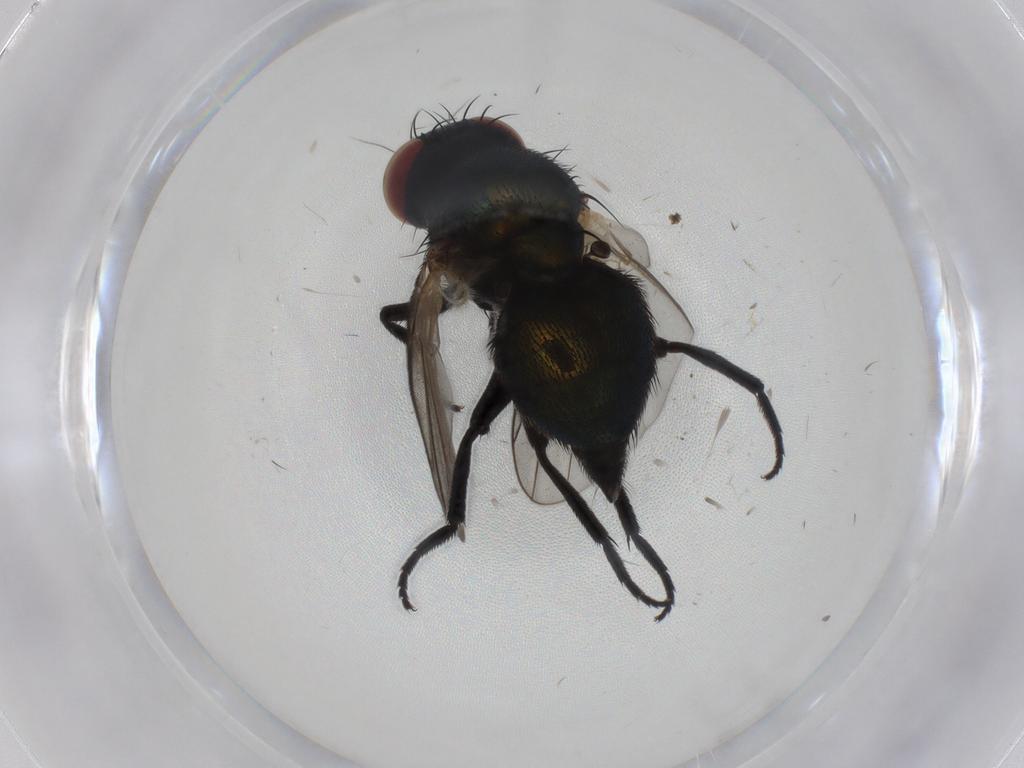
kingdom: Animalia
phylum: Arthropoda
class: Insecta
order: Diptera
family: Agromyzidae
